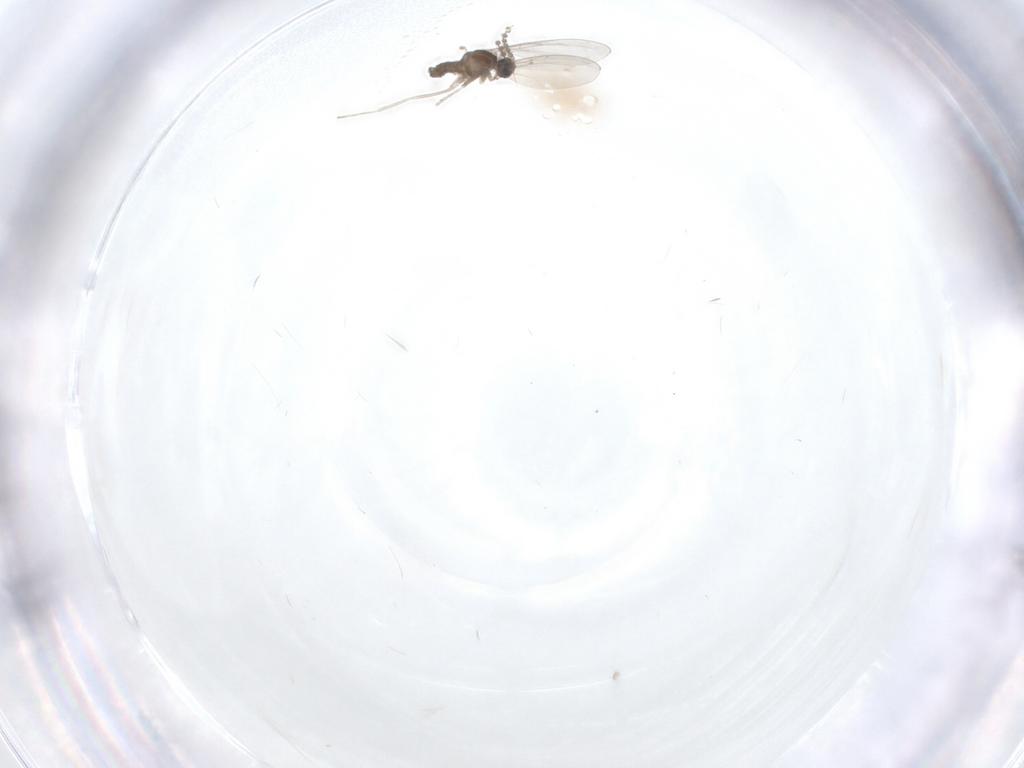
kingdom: Animalia
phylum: Arthropoda
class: Insecta
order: Diptera
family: Cecidomyiidae
